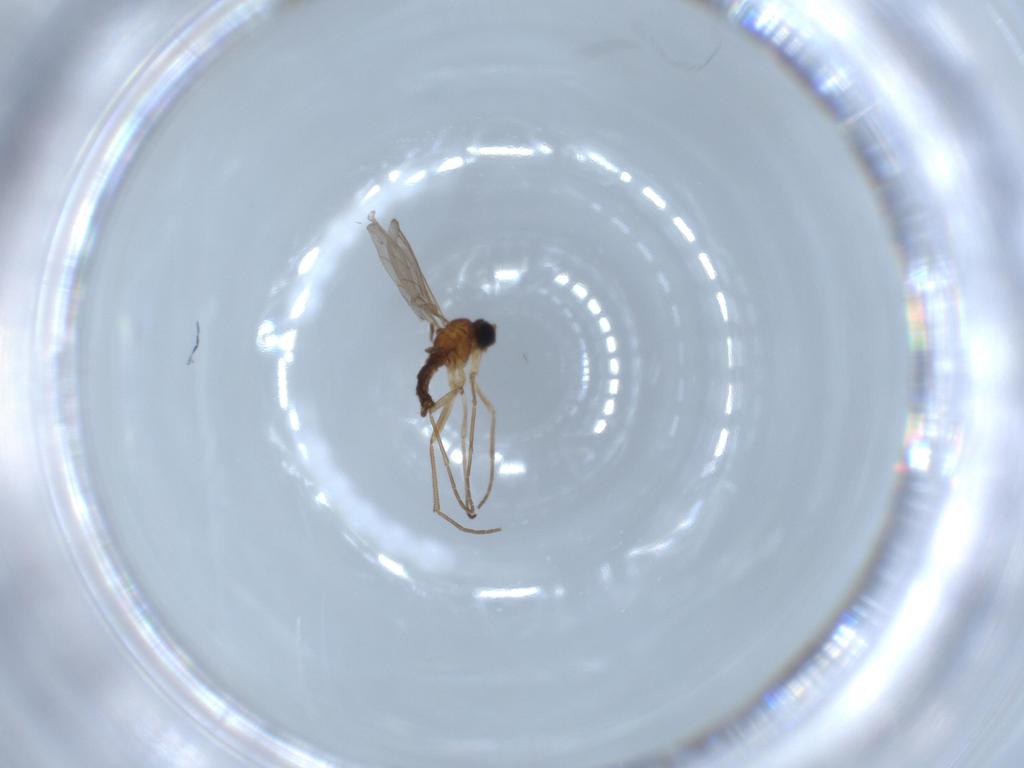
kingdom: Animalia
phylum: Arthropoda
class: Insecta
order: Diptera
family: Sciaridae
